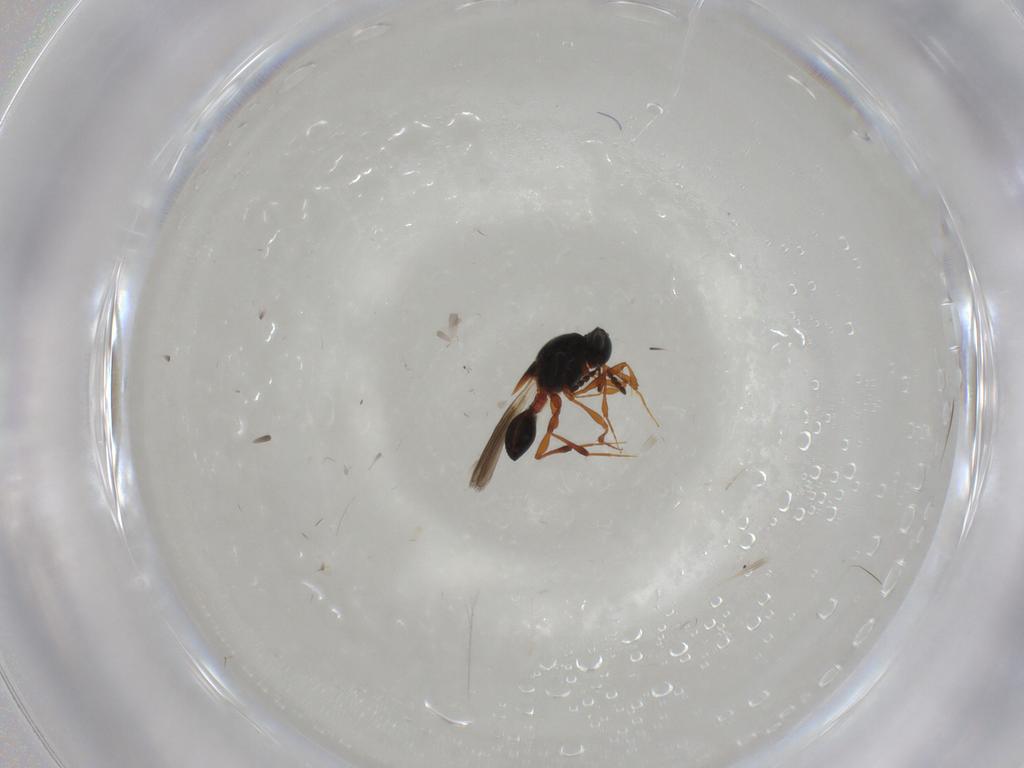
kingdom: Animalia
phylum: Arthropoda
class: Insecta
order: Hymenoptera
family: Platygastridae
